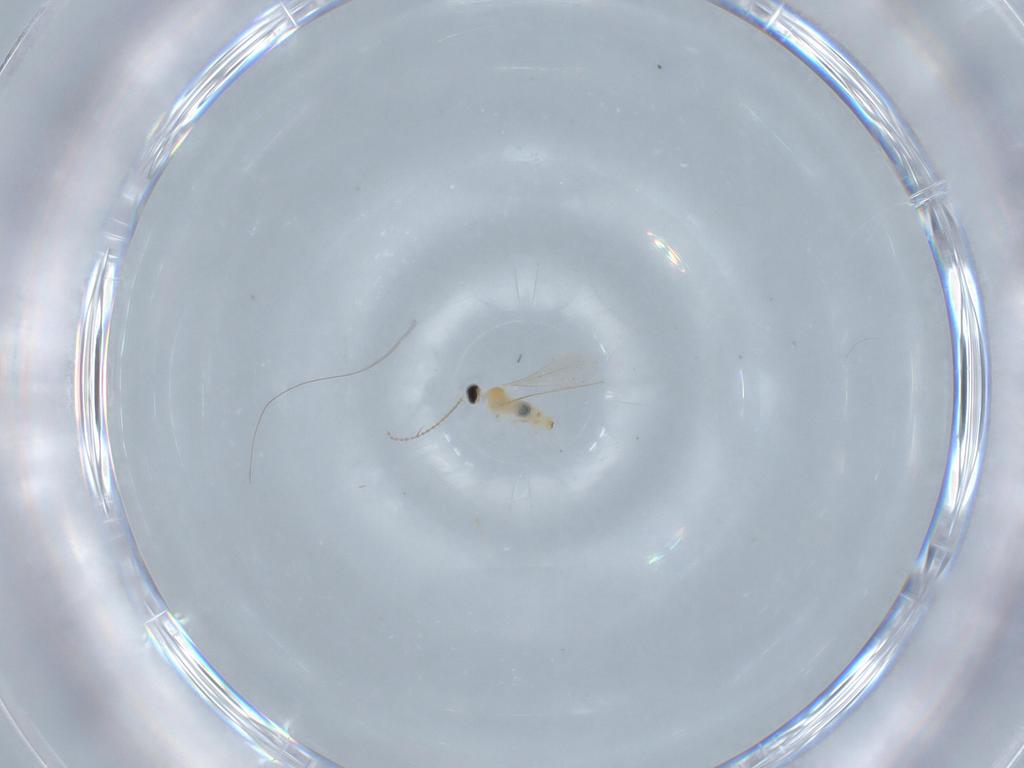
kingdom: Animalia
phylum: Arthropoda
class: Insecta
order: Diptera
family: Cecidomyiidae
